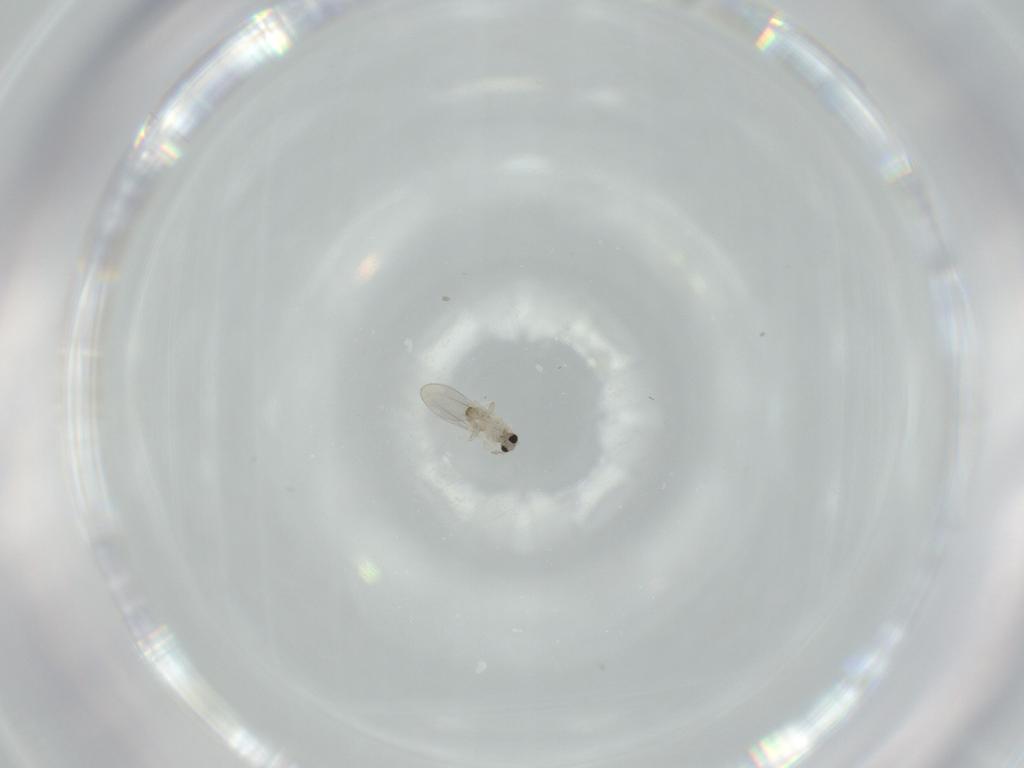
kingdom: Animalia
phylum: Arthropoda
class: Insecta
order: Diptera
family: Cecidomyiidae
